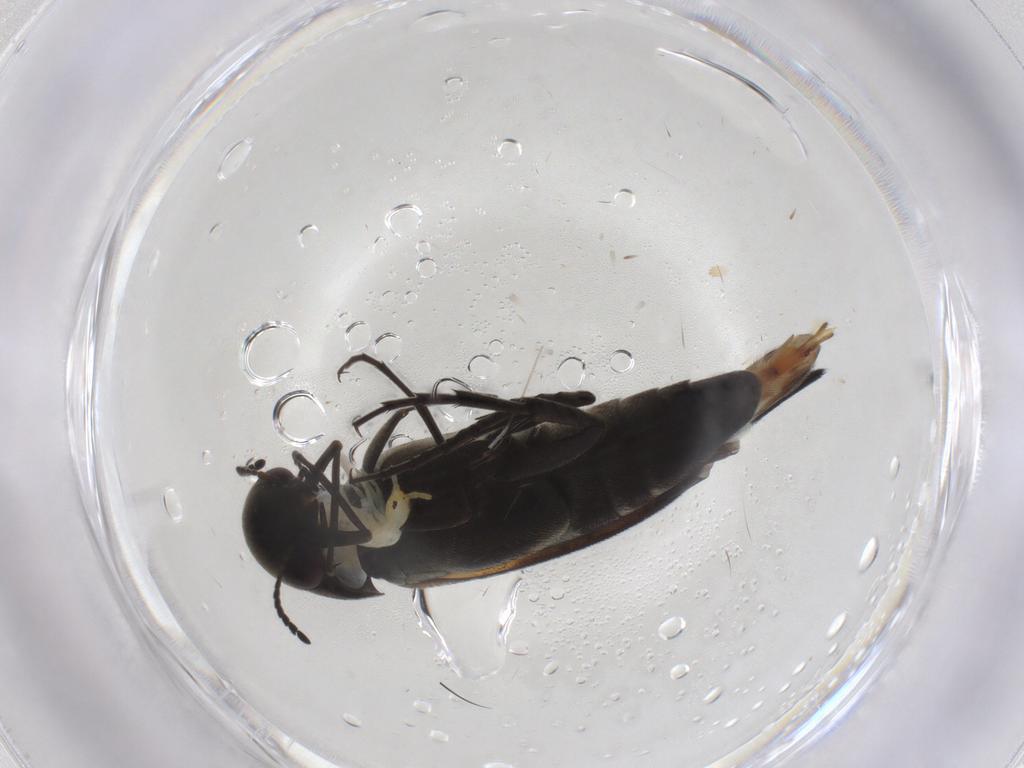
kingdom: Animalia
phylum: Arthropoda
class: Insecta
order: Coleoptera
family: Mordellidae
